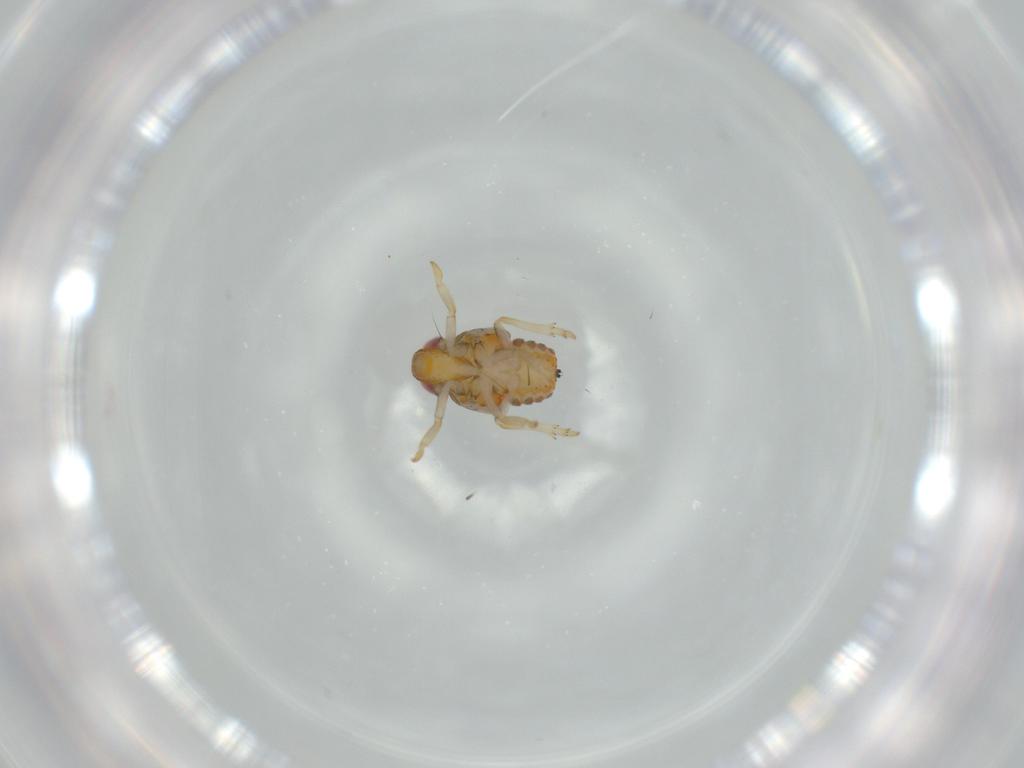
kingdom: Animalia
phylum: Arthropoda
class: Insecta
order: Hemiptera
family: Issidae
